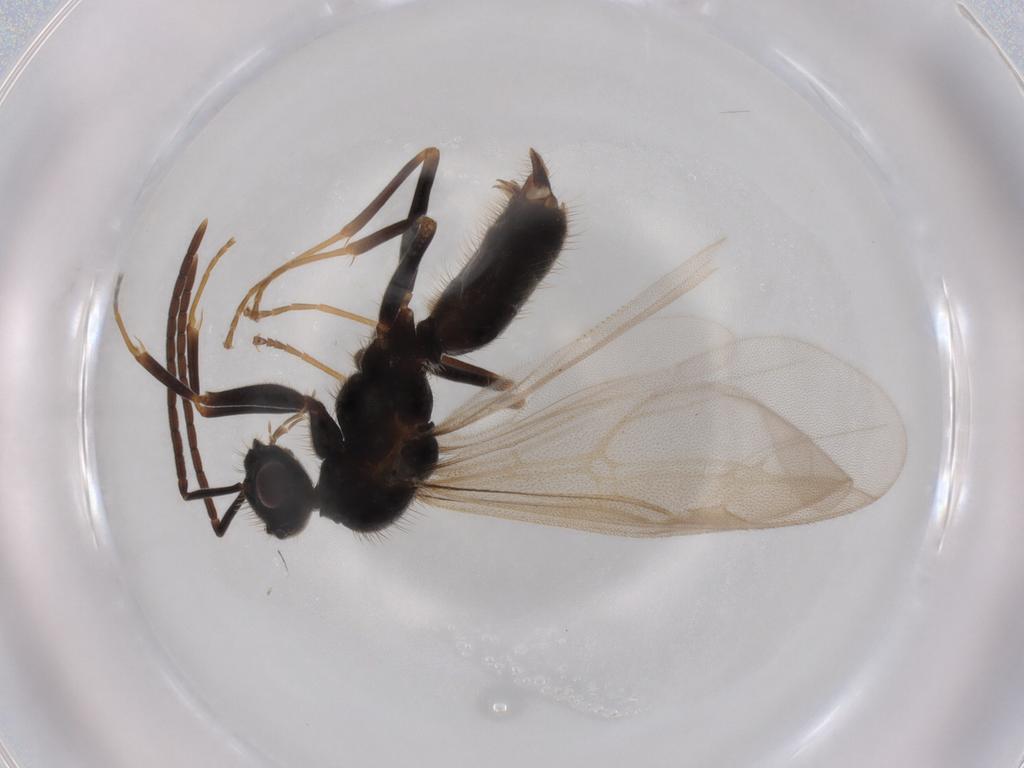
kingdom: Animalia
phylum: Arthropoda
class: Insecta
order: Hymenoptera
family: Formicidae
